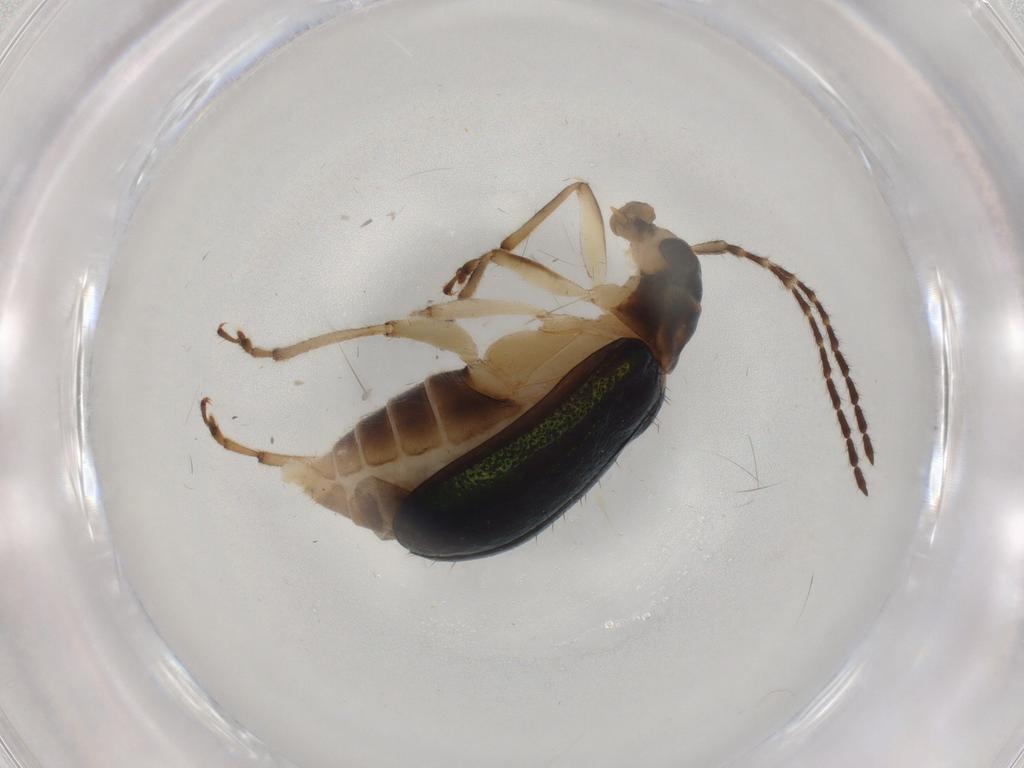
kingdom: Animalia
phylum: Arthropoda
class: Insecta
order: Coleoptera
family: Chrysomelidae
